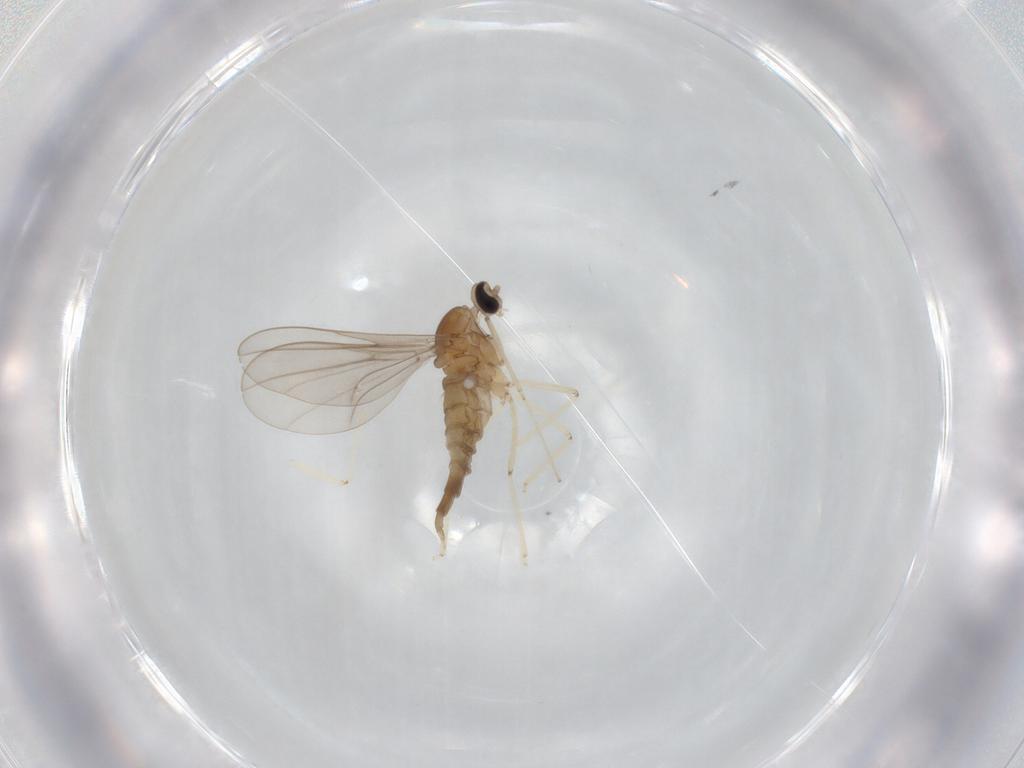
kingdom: Animalia
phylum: Arthropoda
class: Insecta
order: Diptera
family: Cecidomyiidae
